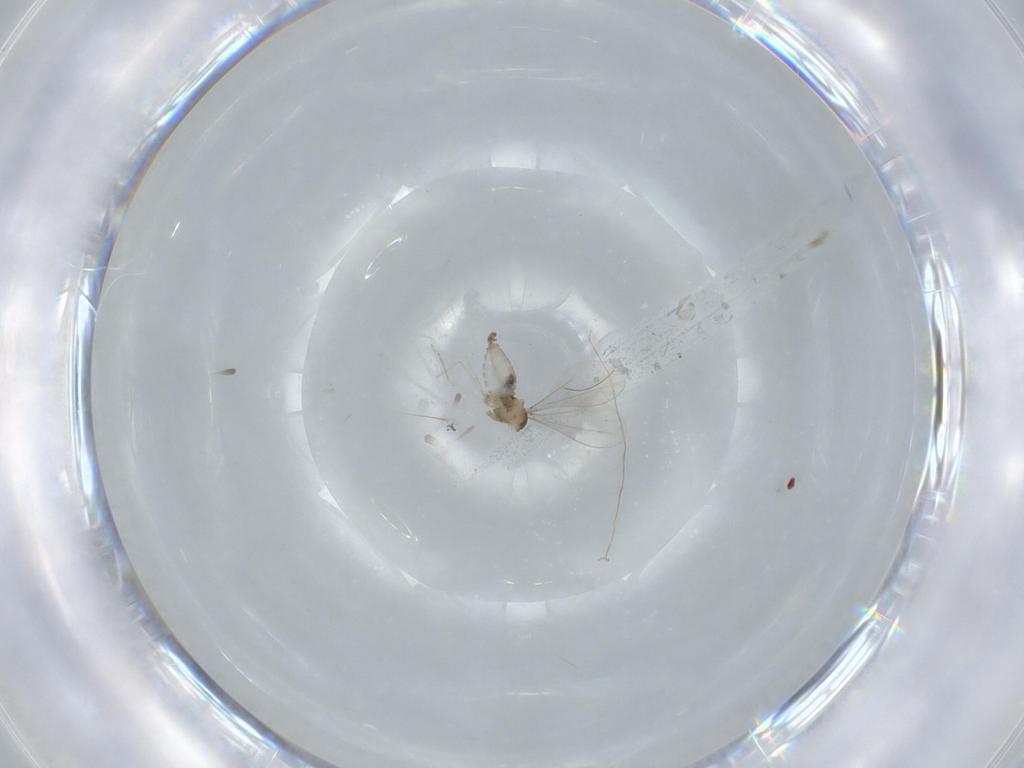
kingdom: Animalia
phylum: Arthropoda
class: Insecta
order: Diptera
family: Cecidomyiidae
